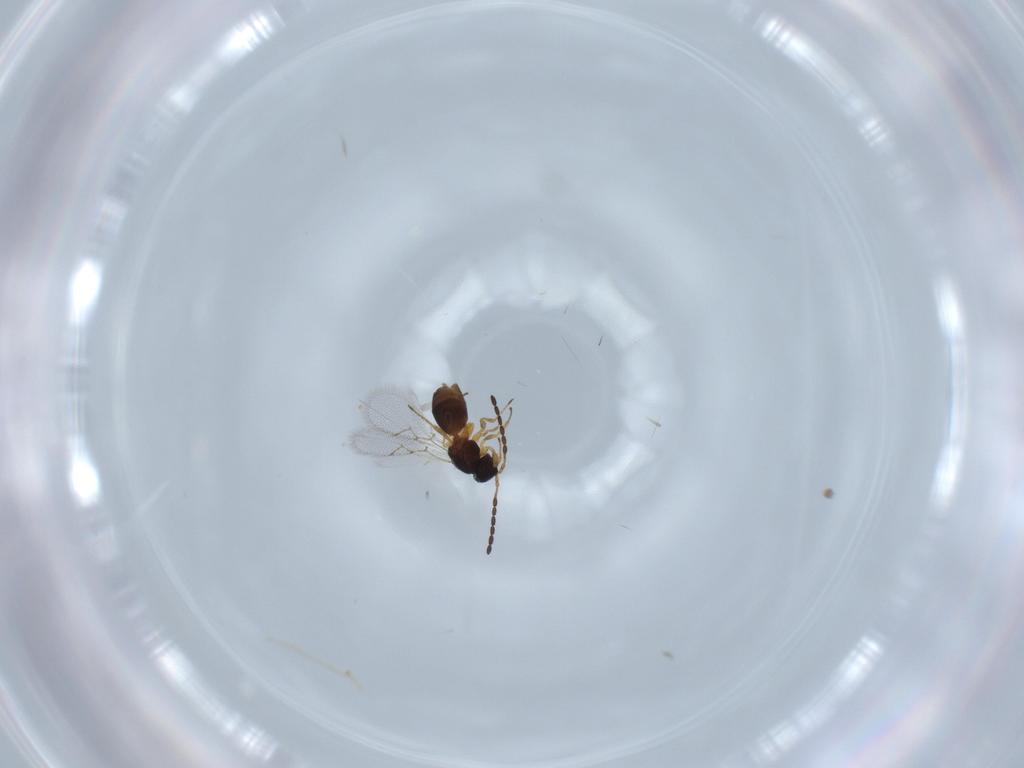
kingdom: Animalia
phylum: Arthropoda
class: Insecta
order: Hymenoptera
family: Figitidae
